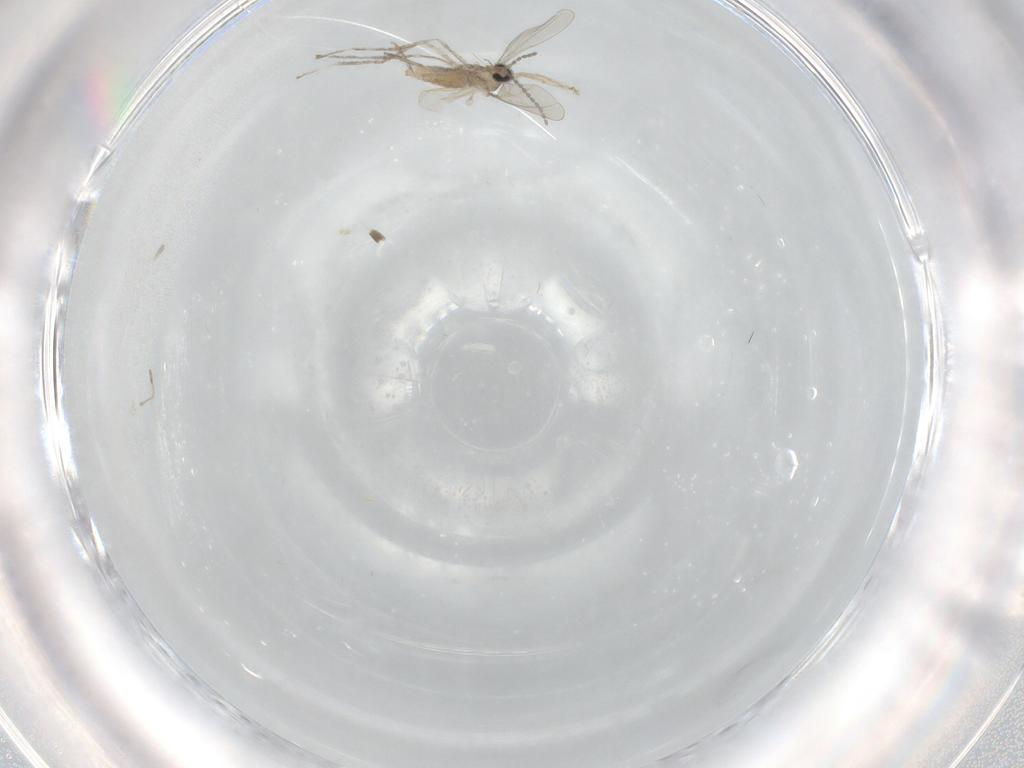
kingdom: Animalia
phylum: Arthropoda
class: Insecta
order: Diptera
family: Cecidomyiidae
